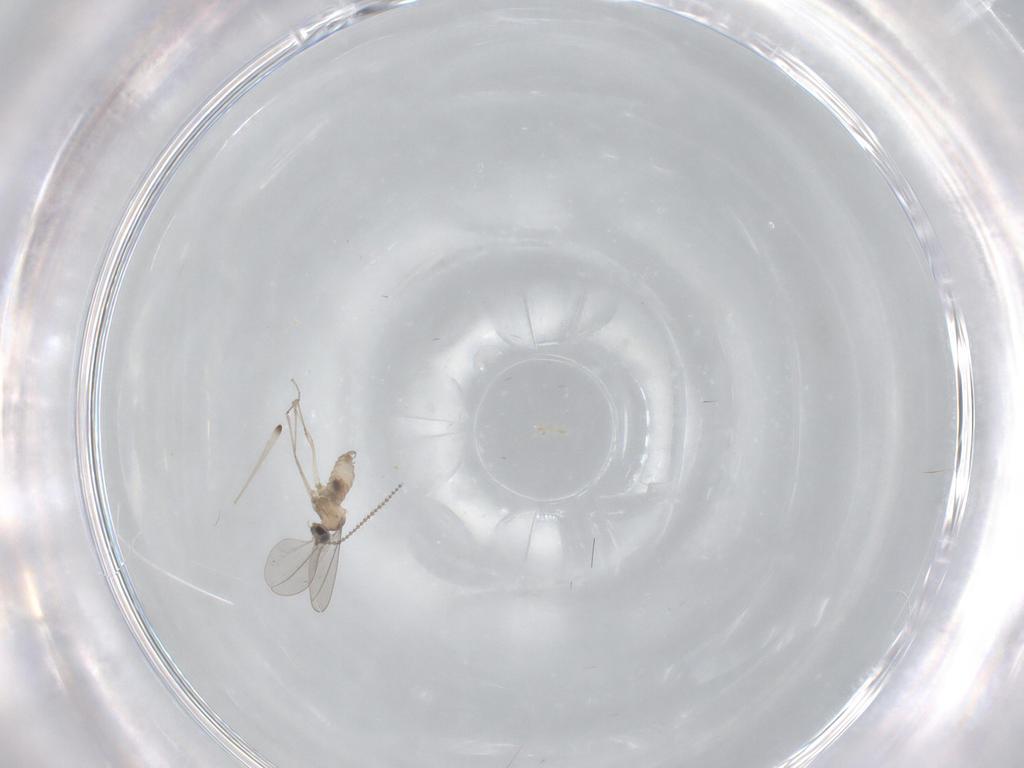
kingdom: Animalia
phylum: Arthropoda
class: Insecta
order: Diptera
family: Cecidomyiidae
